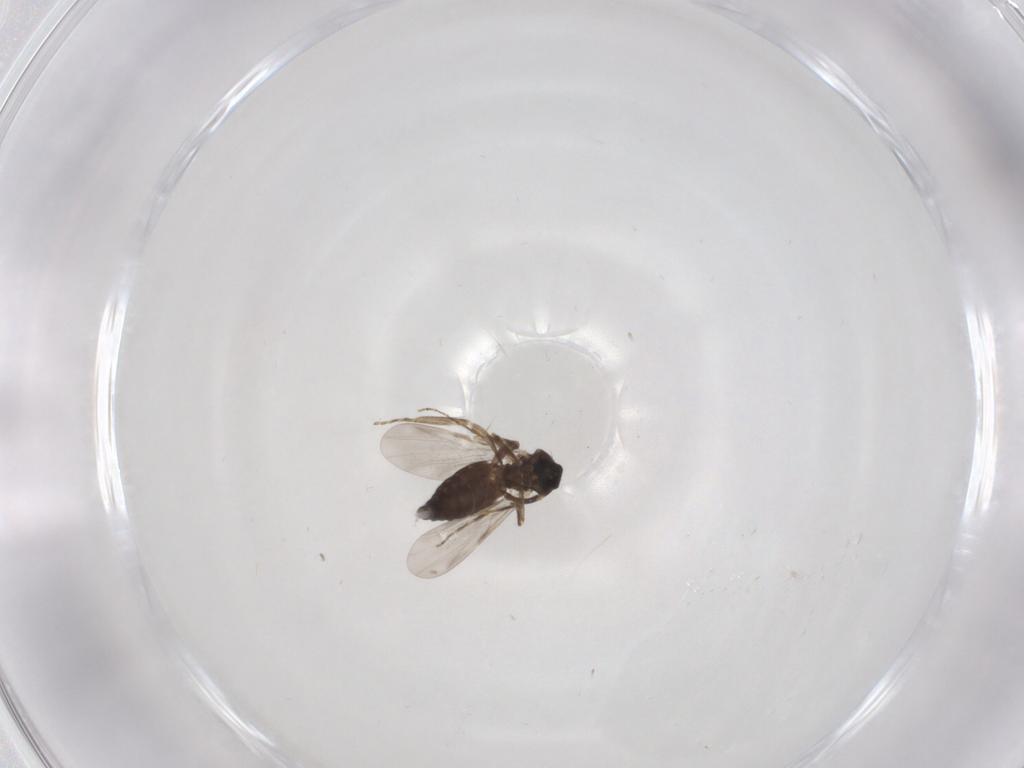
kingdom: Animalia
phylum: Arthropoda
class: Insecta
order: Diptera
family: Ceratopogonidae
